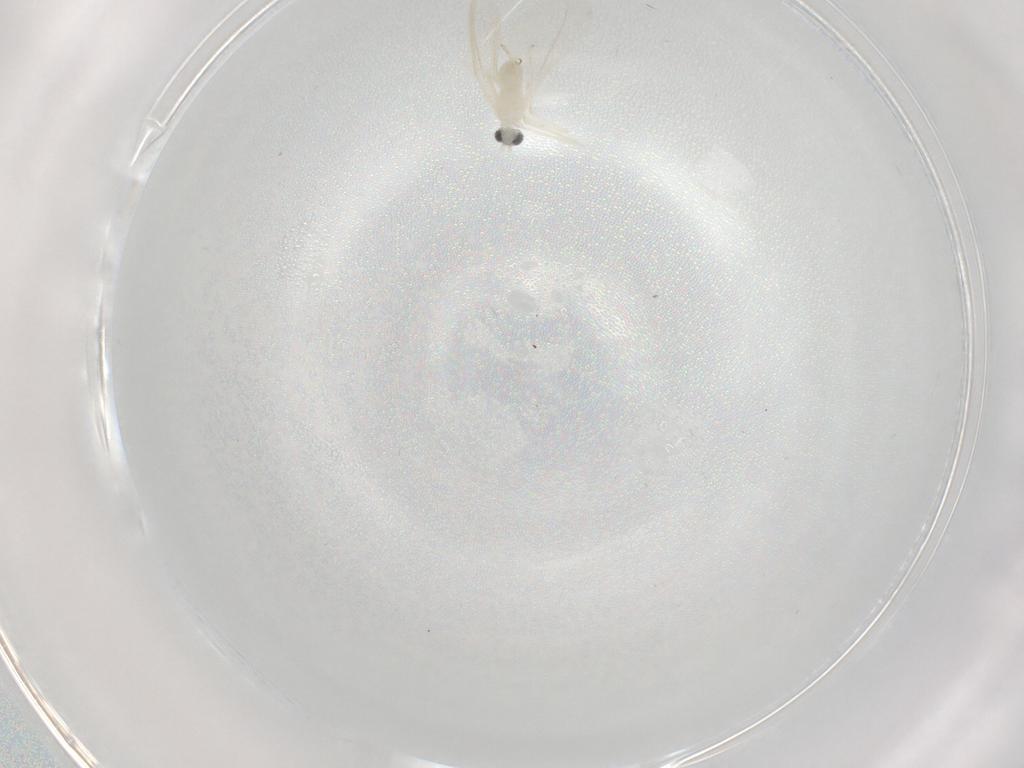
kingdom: Animalia
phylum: Arthropoda
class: Insecta
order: Diptera
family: Cecidomyiidae
